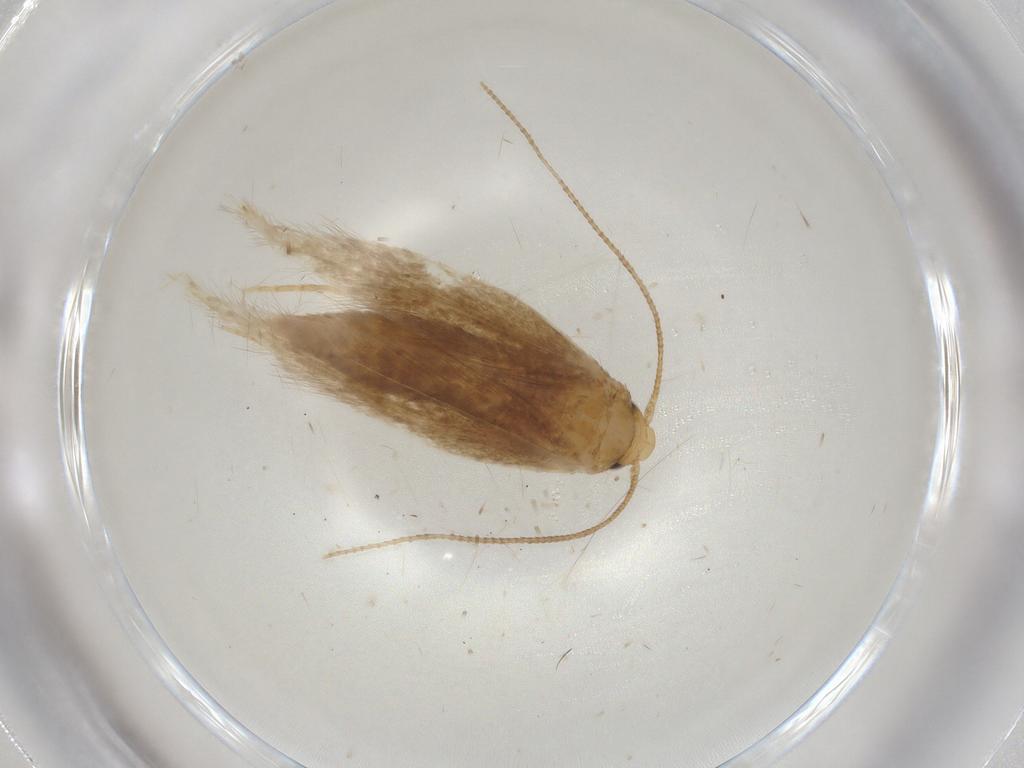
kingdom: Animalia
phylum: Arthropoda
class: Insecta
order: Lepidoptera
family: Tineidae
